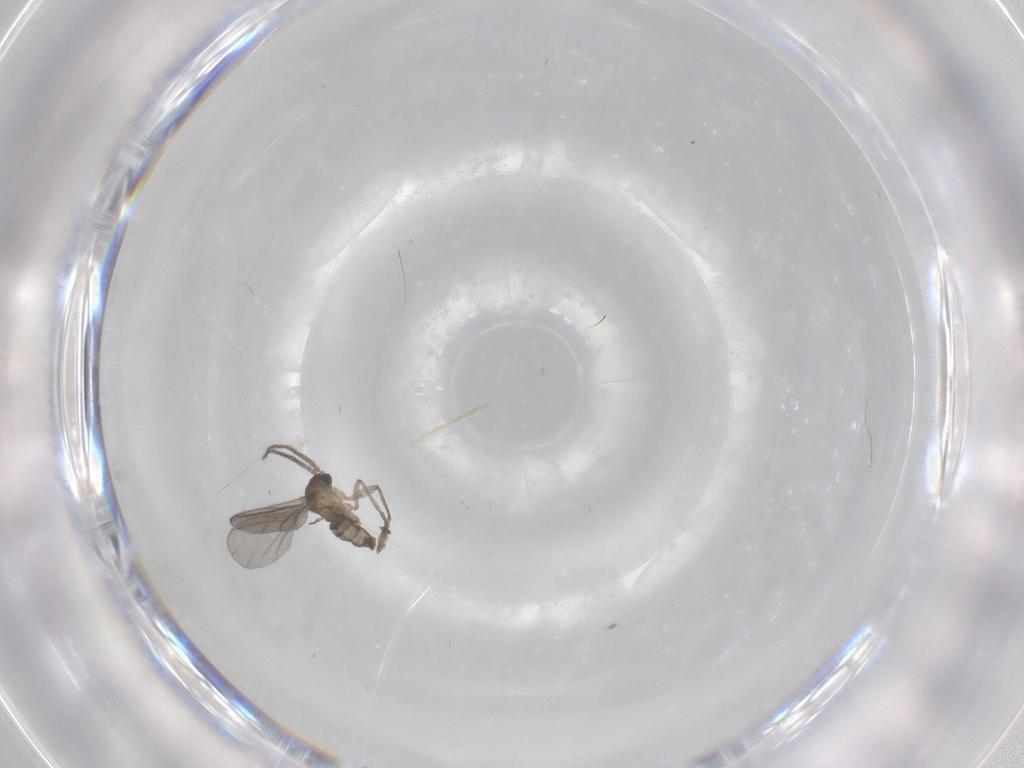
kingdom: Animalia
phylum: Arthropoda
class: Insecta
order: Diptera
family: Sciaridae
